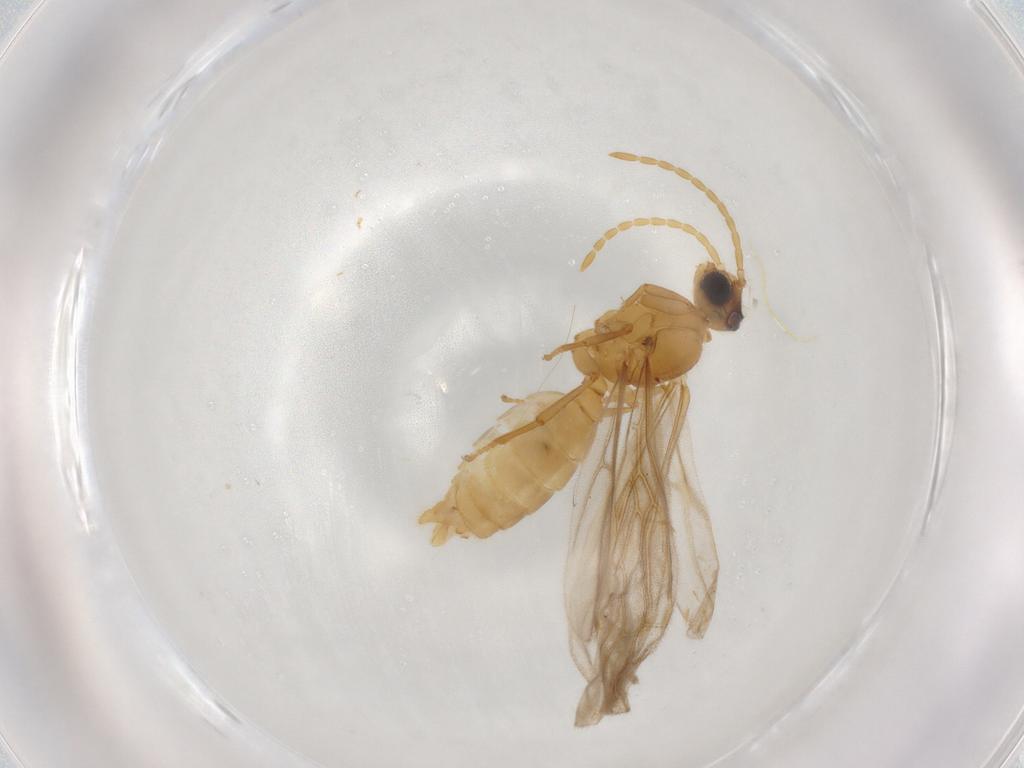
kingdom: Animalia
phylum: Arthropoda
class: Insecta
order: Hymenoptera
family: Formicidae
